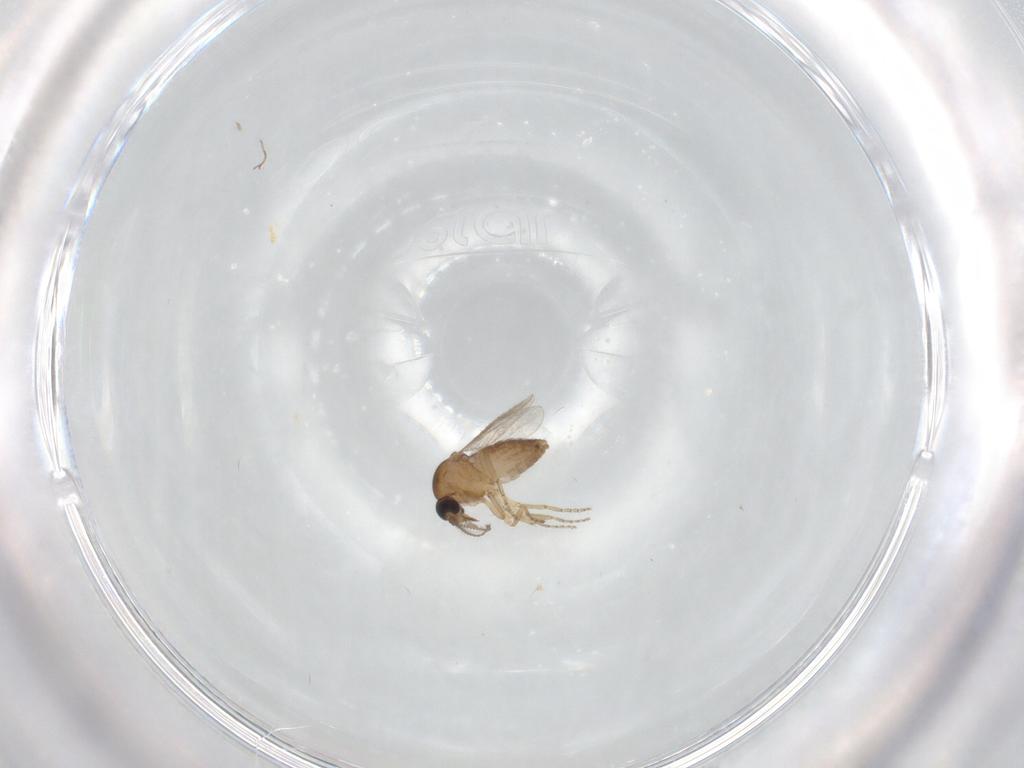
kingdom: Animalia
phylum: Arthropoda
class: Insecta
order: Diptera
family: Ceratopogonidae
